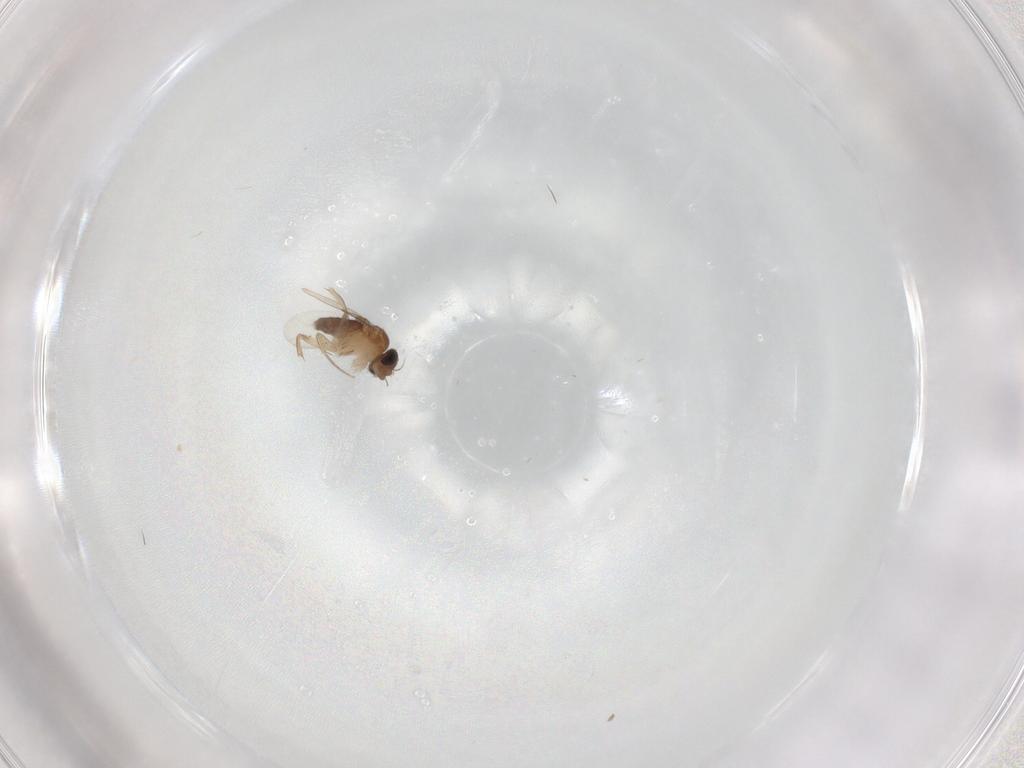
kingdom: Animalia
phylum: Arthropoda
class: Insecta
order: Diptera
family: Ceratopogonidae
